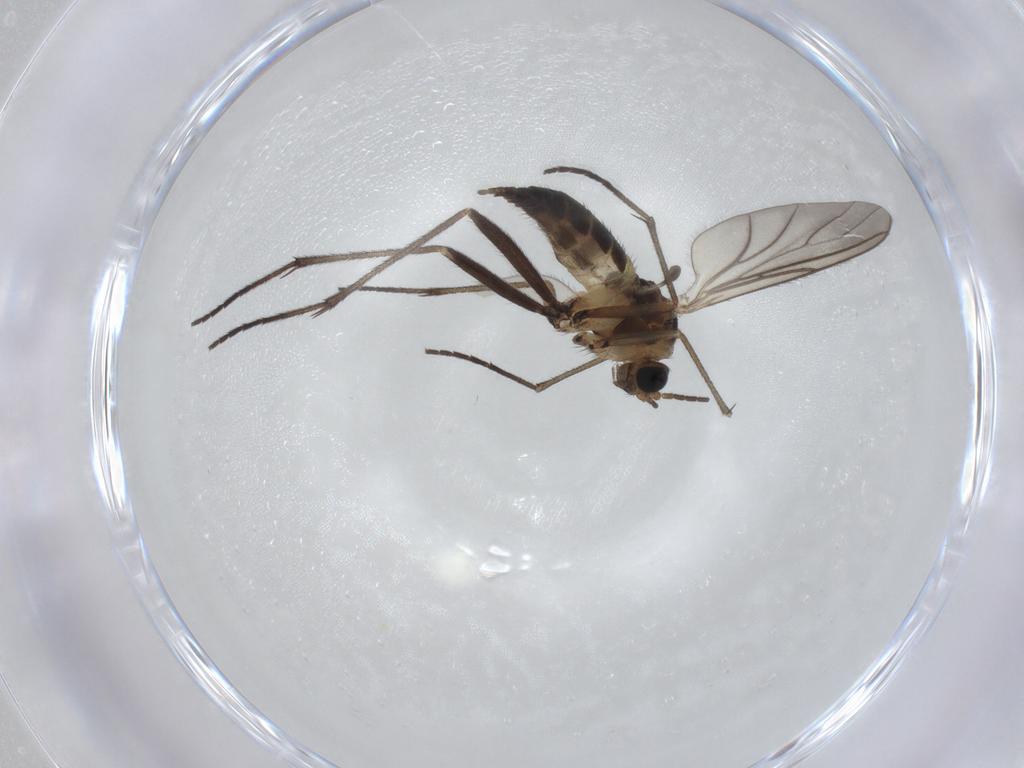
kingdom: Animalia
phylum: Arthropoda
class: Insecta
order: Diptera
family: Sciaridae
